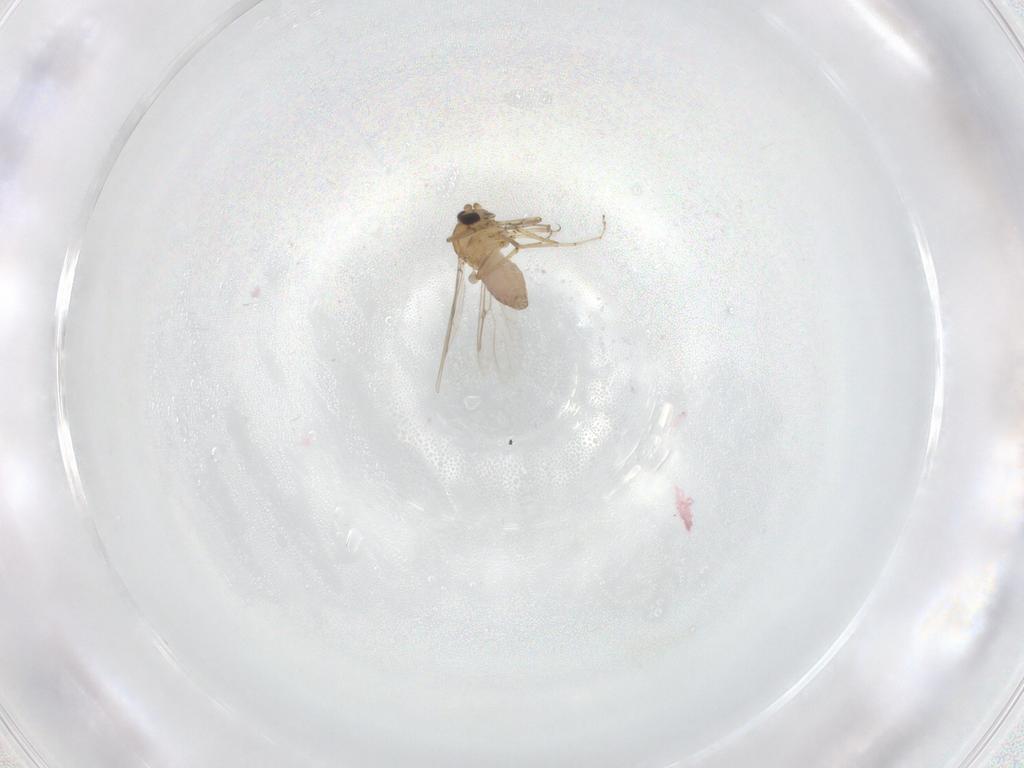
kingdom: Animalia
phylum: Arthropoda
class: Insecta
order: Diptera
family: Ceratopogonidae
